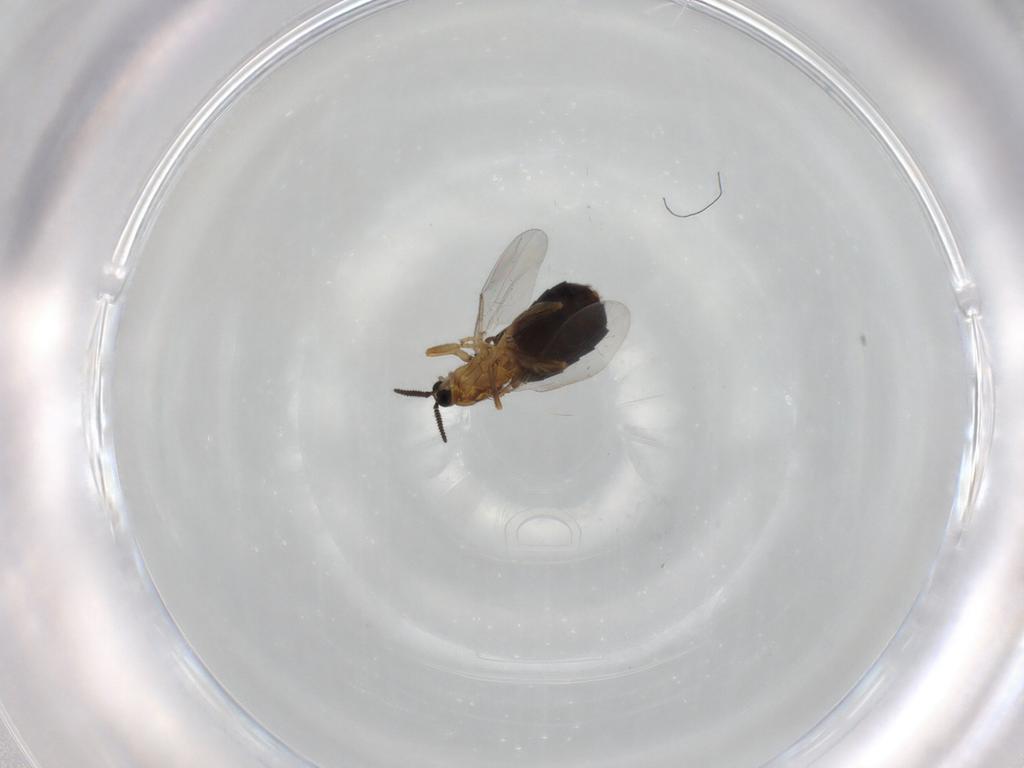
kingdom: Animalia
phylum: Arthropoda
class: Insecta
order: Diptera
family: Scatopsidae
